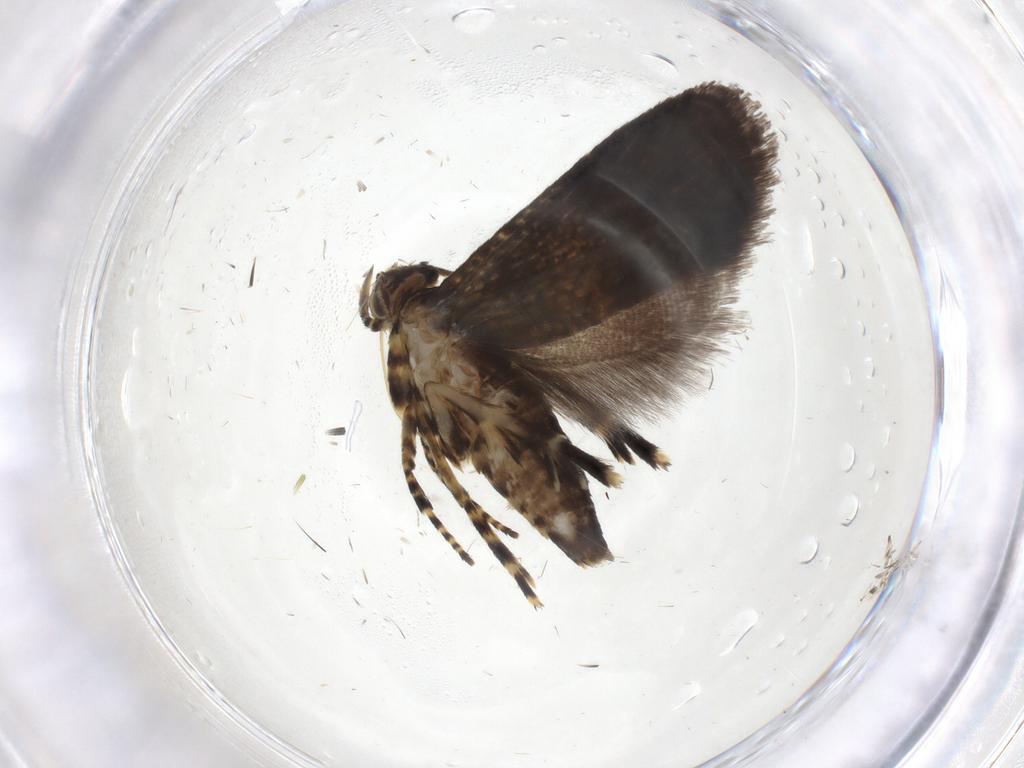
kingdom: Animalia
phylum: Arthropoda
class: Insecta
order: Lepidoptera
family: Geometridae
